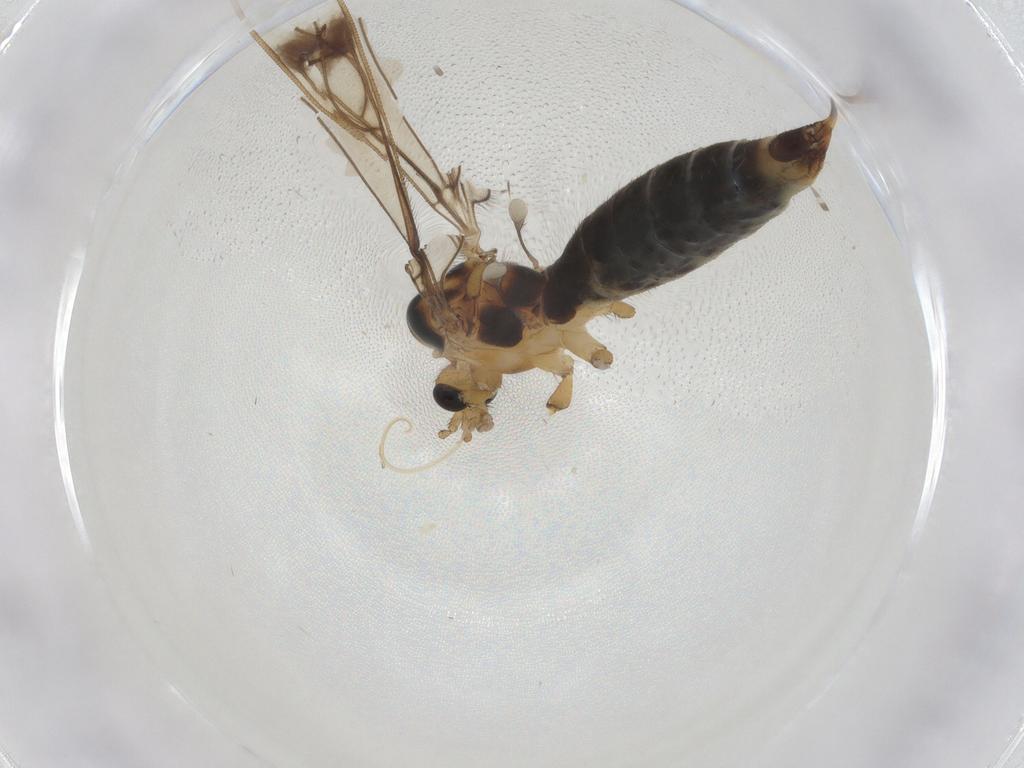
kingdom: Animalia
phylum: Arthropoda
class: Insecta
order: Diptera
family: Limoniidae
